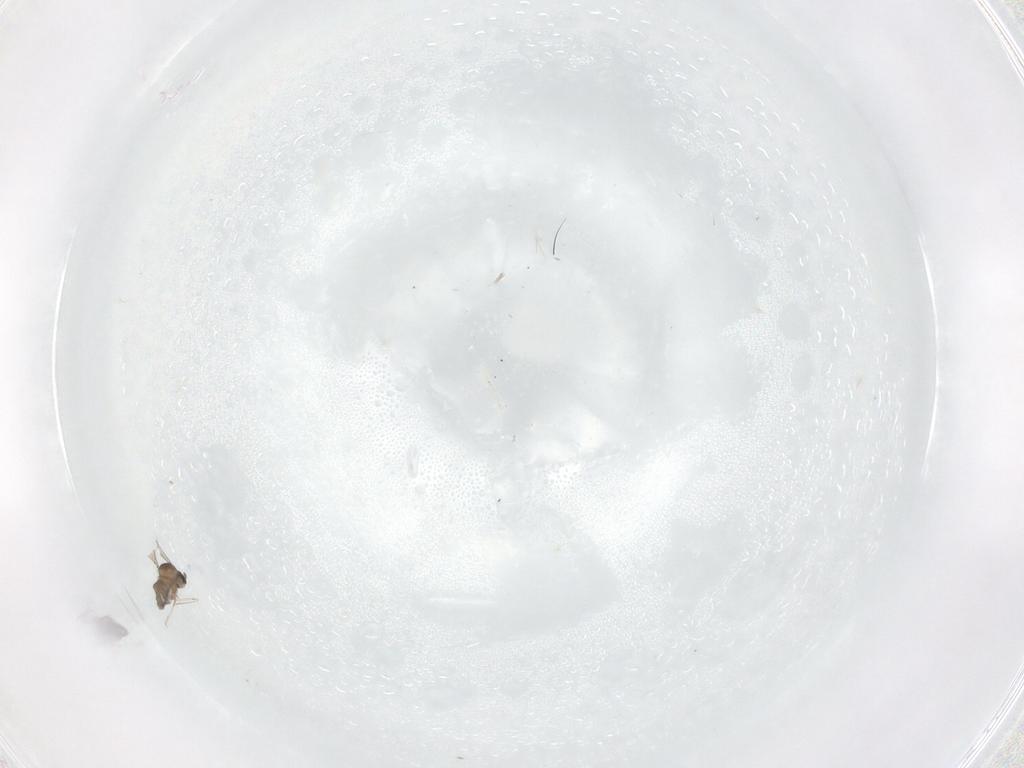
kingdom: Animalia
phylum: Arthropoda
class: Insecta
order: Diptera
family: Cecidomyiidae
